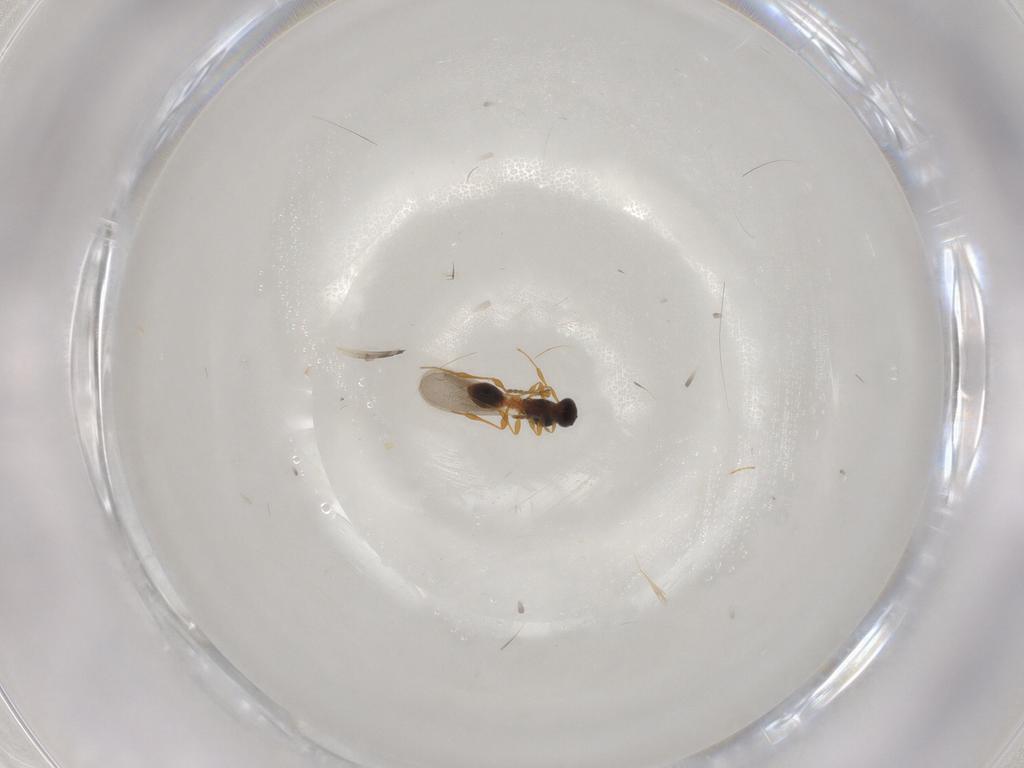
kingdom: Animalia
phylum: Arthropoda
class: Insecta
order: Hymenoptera
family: Platygastridae
